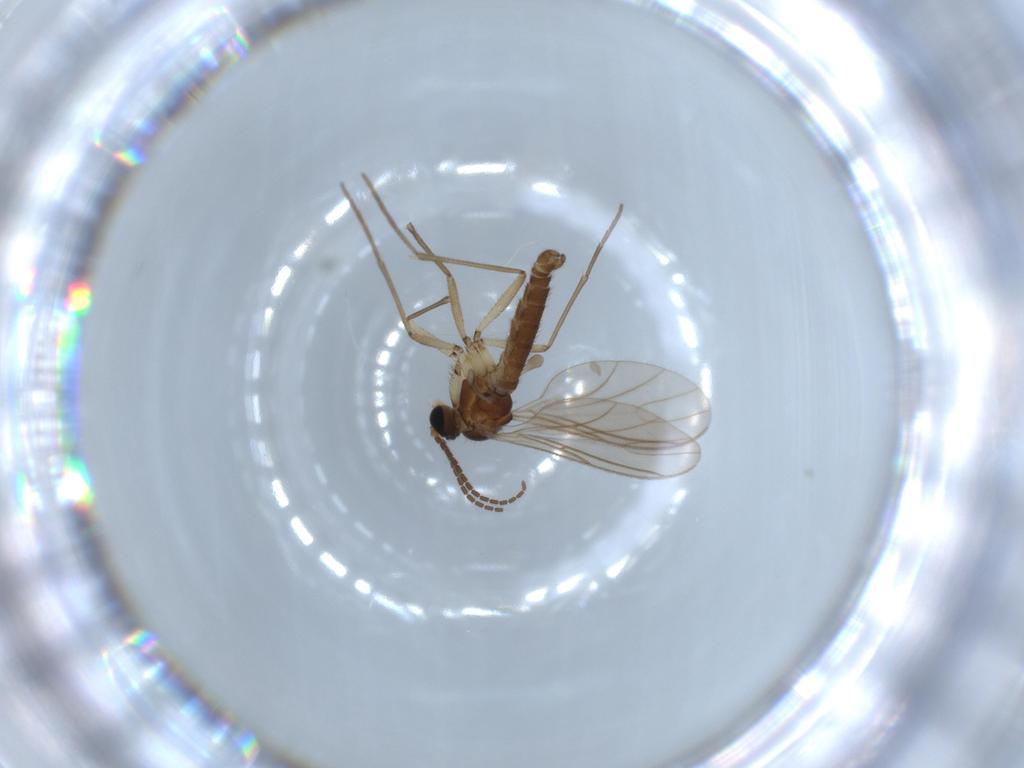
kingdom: Animalia
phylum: Arthropoda
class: Insecta
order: Diptera
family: Sciaridae
